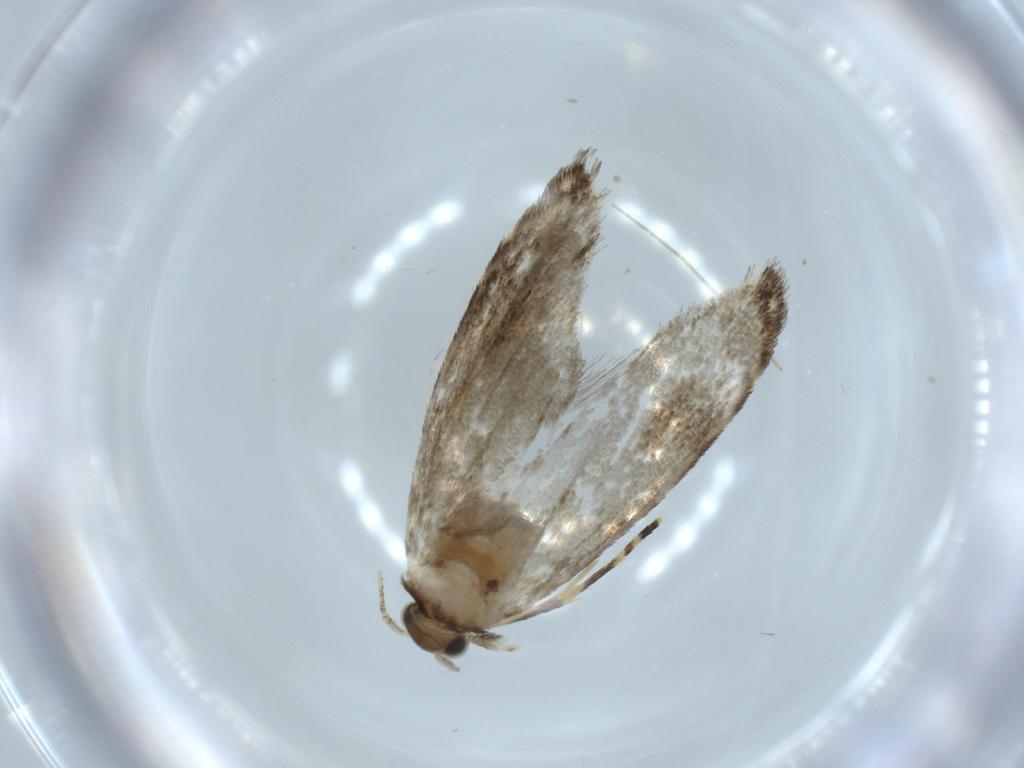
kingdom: Animalia
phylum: Arthropoda
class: Insecta
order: Lepidoptera
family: Tineidae
